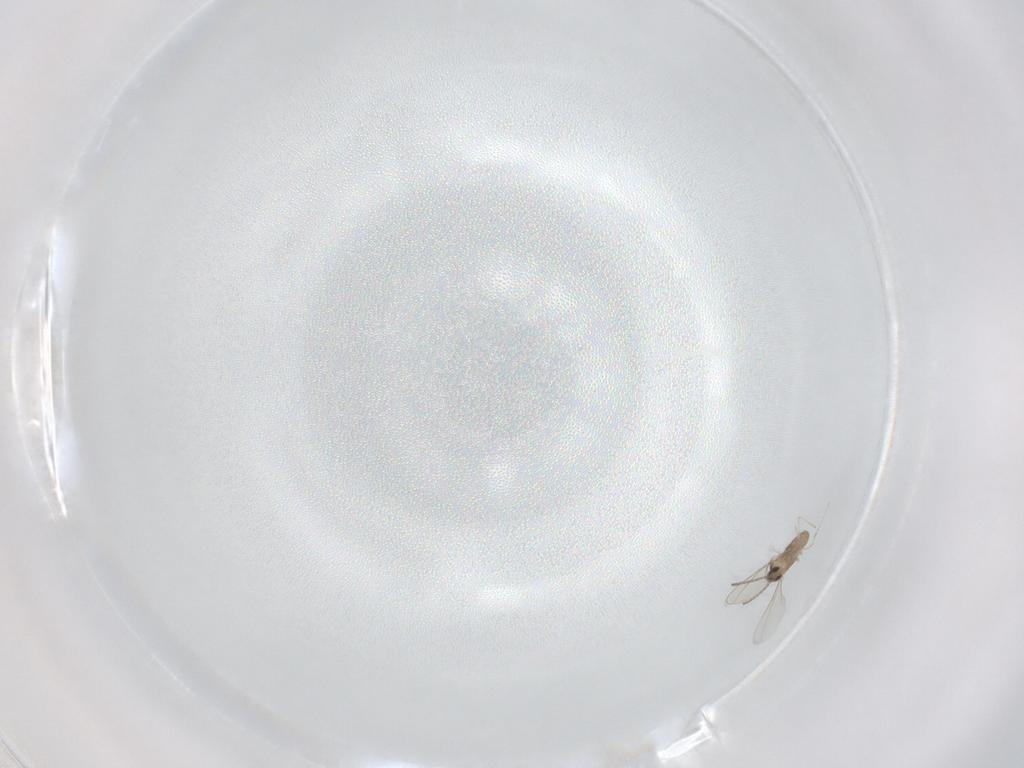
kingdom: Animalia
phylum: Arthropoda
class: Insecta
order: Diptera
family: Cecidomyiidae
